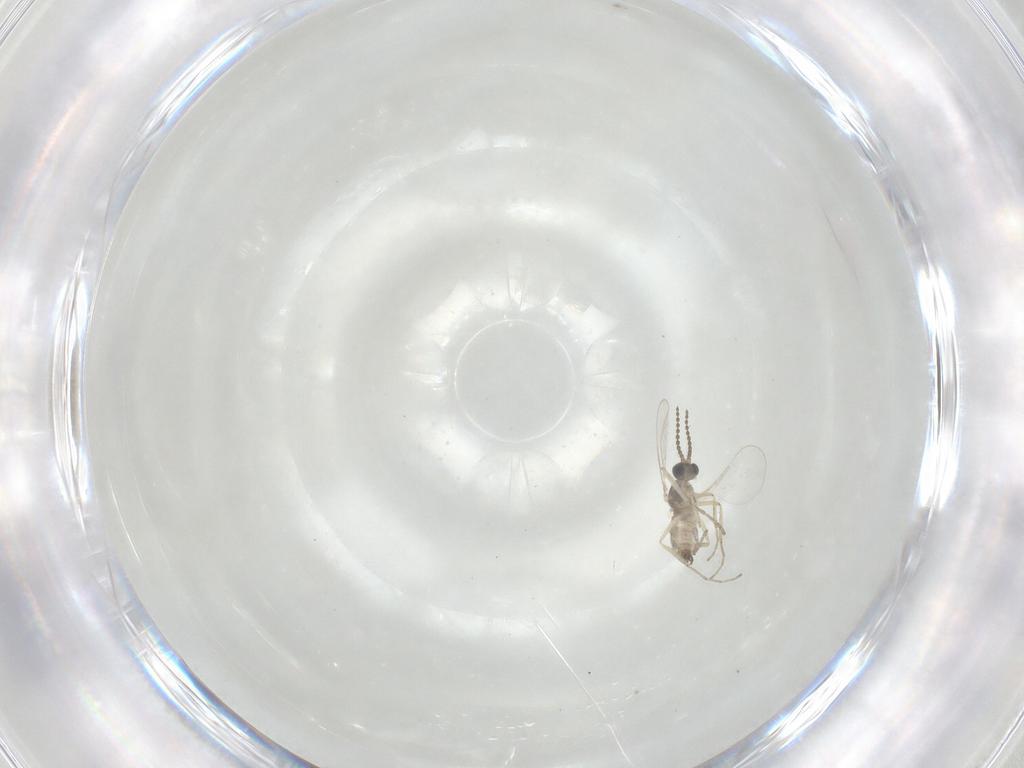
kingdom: Animalia
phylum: Arthropoda
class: Insecta
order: Diptera
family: Cecidomyiidae
